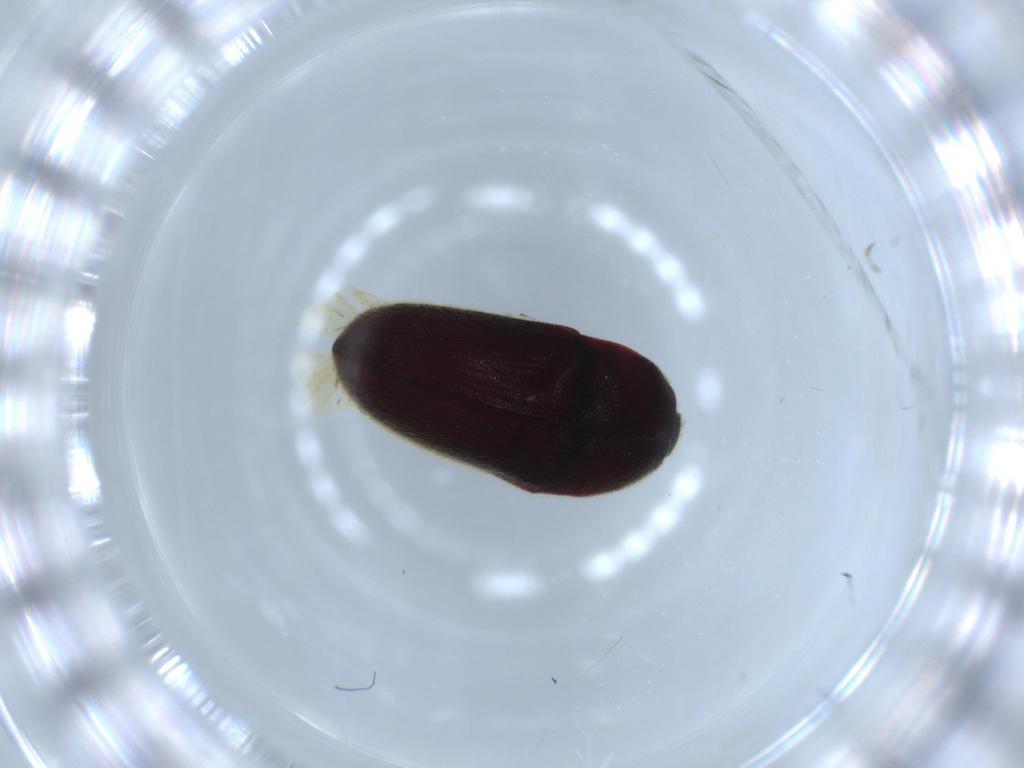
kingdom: Animalia
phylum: Arthropoda
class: Insecta
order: Coleoptera
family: Throscidae
